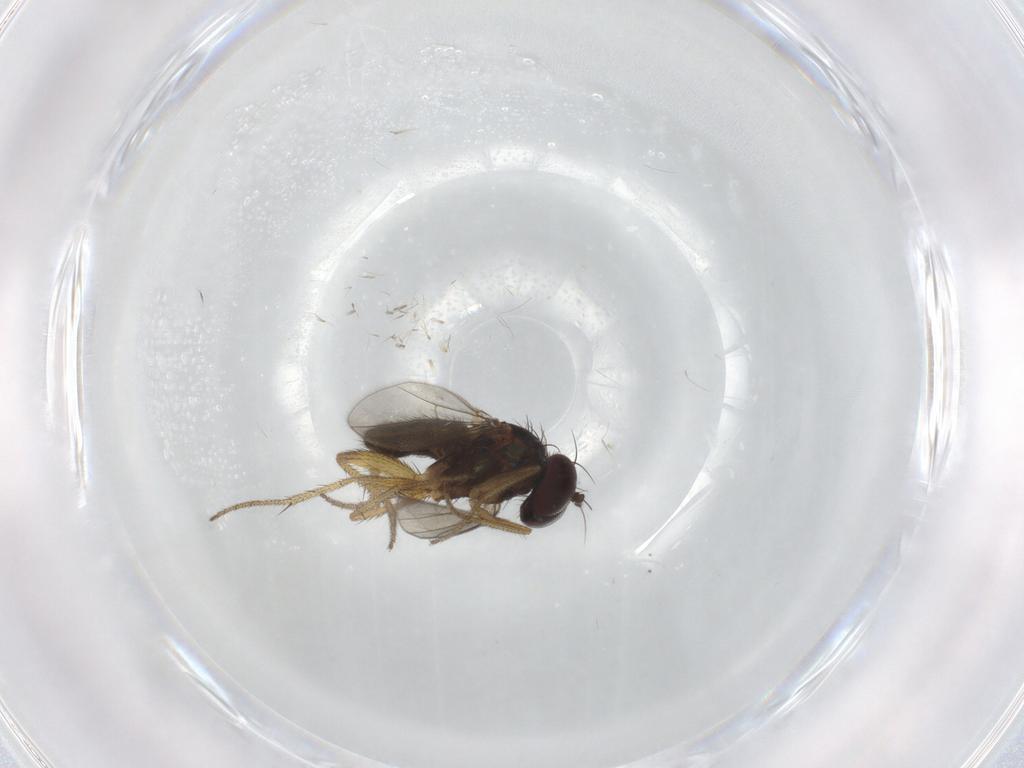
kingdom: Animalia
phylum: Arthropoda
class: Insecta
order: Diptera
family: Dolichopodidae
